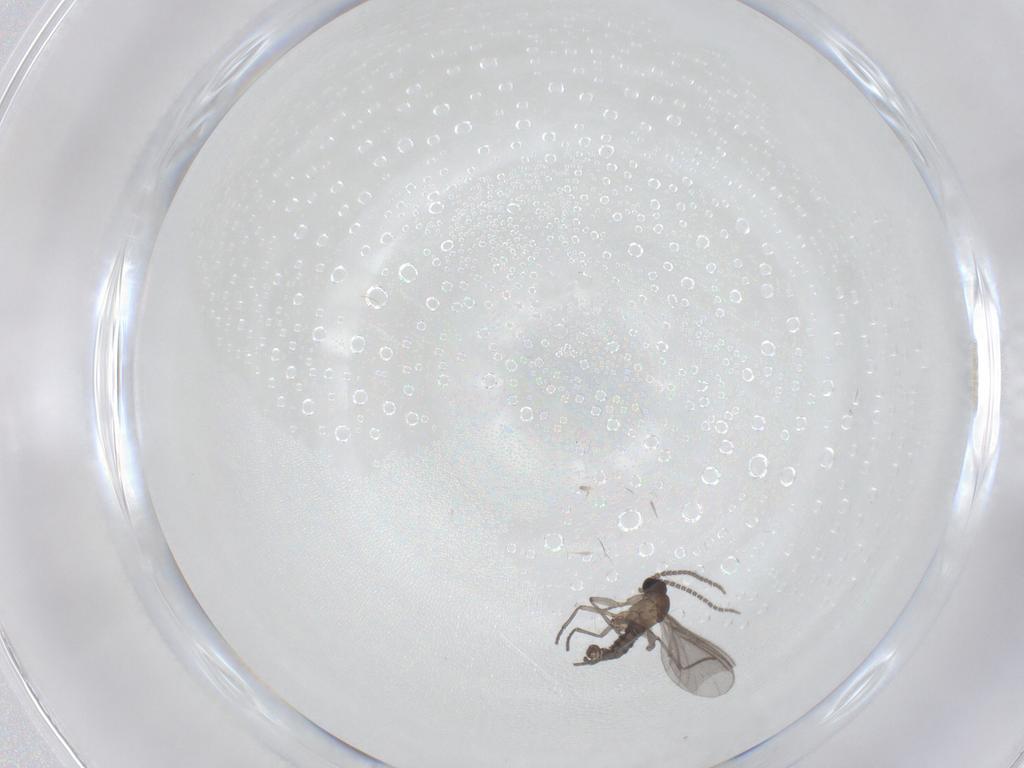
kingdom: Animalia
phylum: Arthropoda
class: Insecta
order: Diptera
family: Sciaridae
